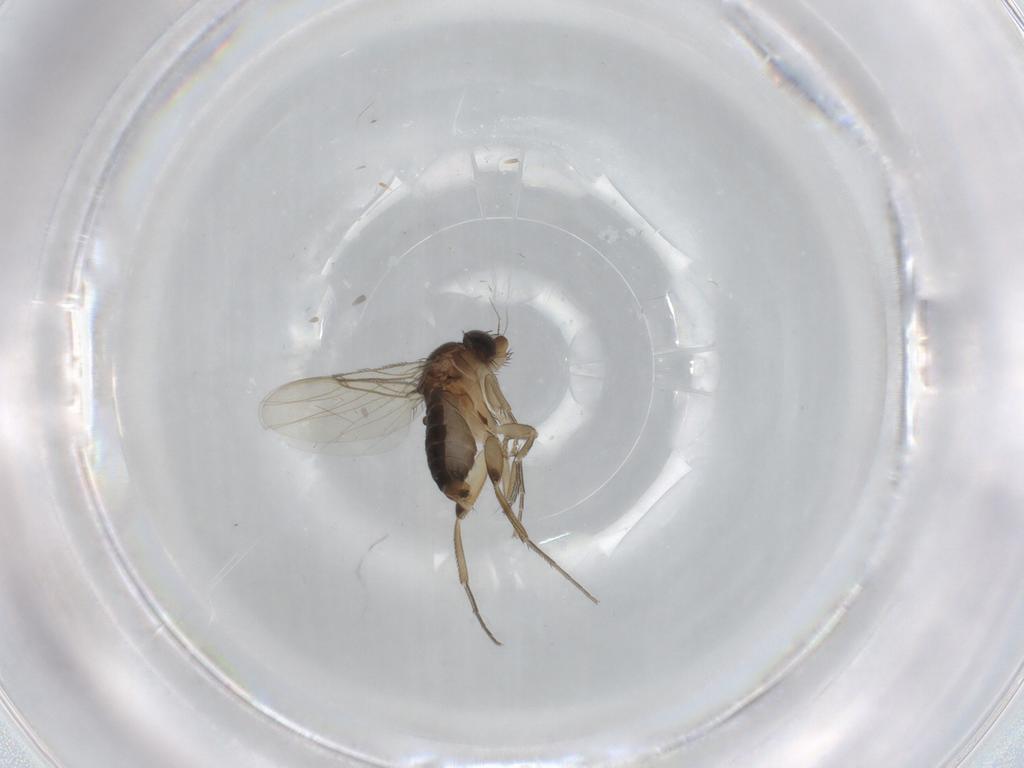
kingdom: Animalia
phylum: Arthropoda
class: Insecta
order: Diptera
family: Phoridae
